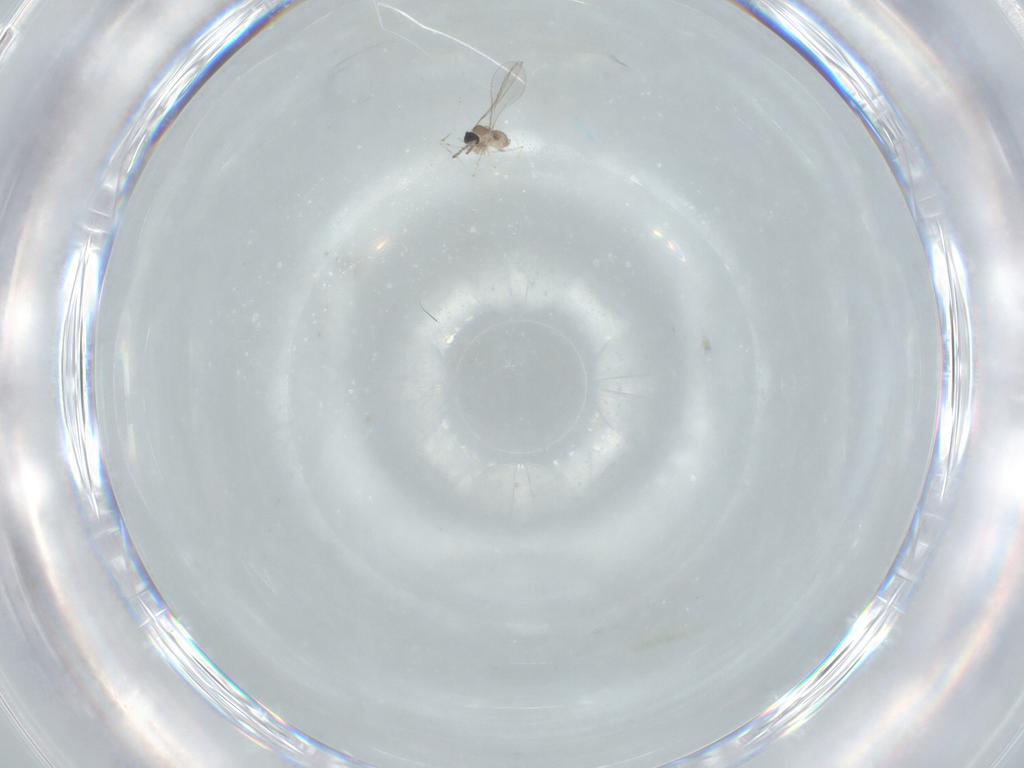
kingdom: Animalia
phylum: Arthropoda
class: Insecta
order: Diptera
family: Cecidomyiidae
